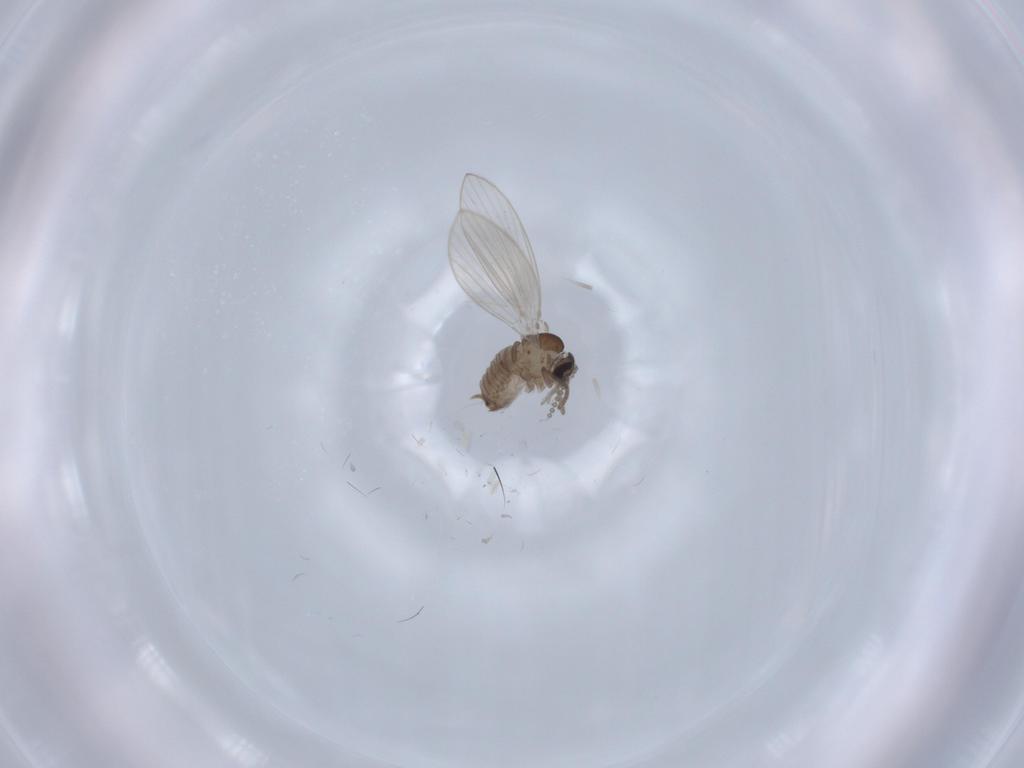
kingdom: Animalia
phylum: Arthropoda
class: Insecta
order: Diptera
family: Psychodidae
